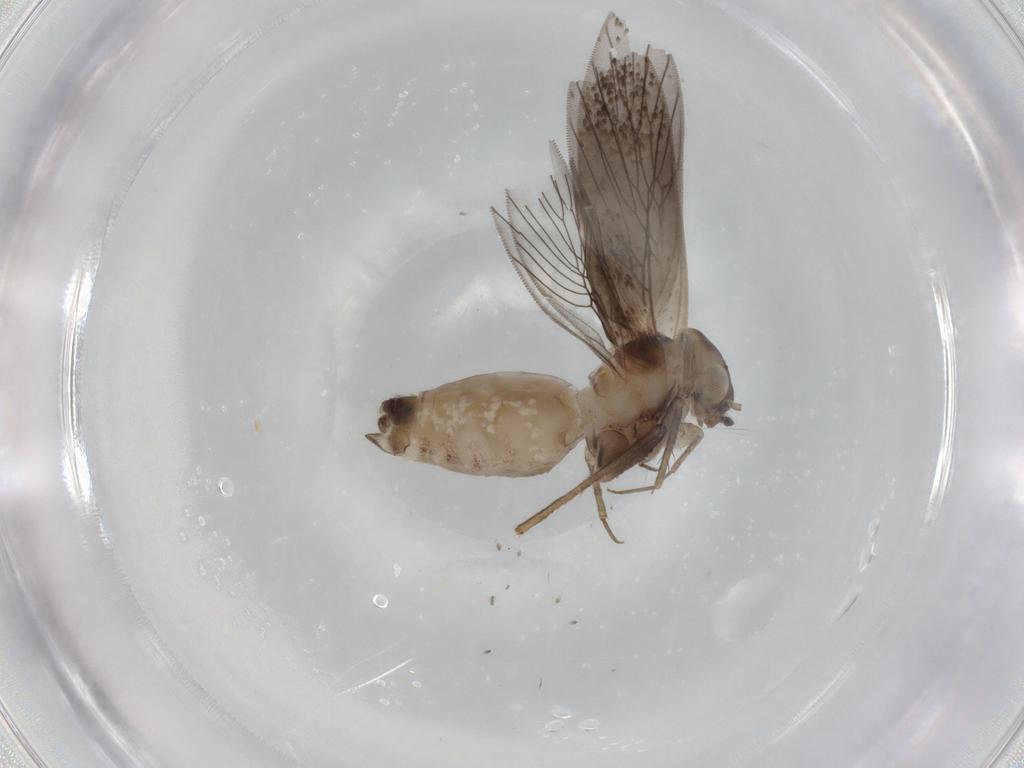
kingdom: Animalia
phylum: Arthropoda
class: Insecta
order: Psocodea
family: Lepidopsocidae
